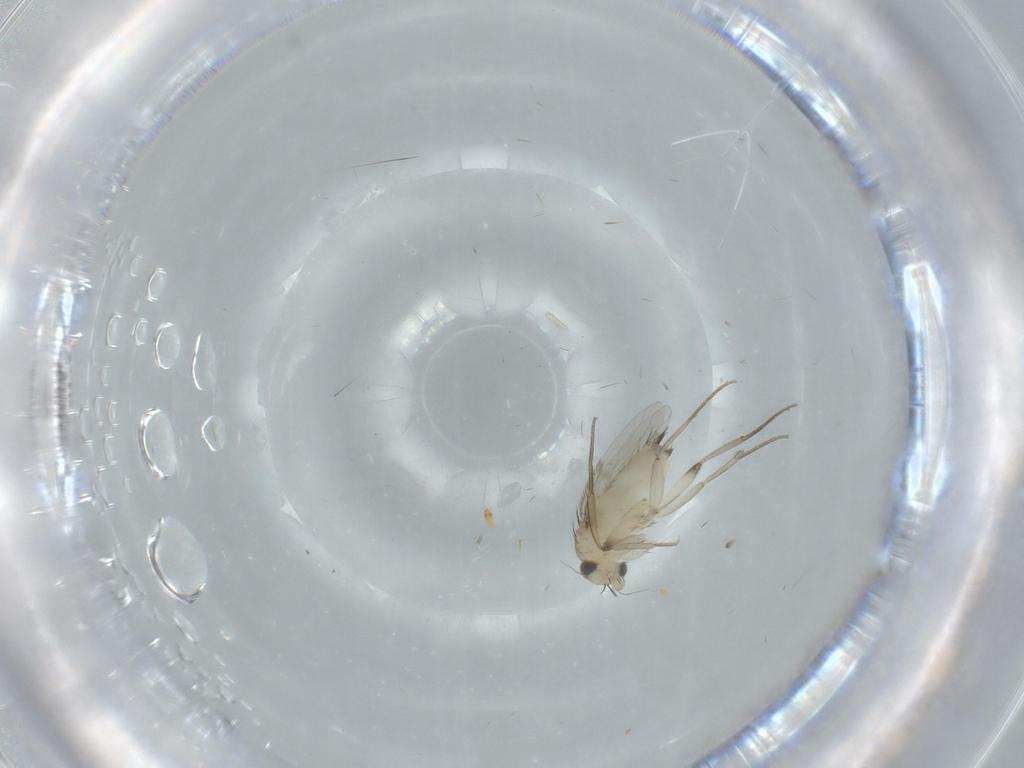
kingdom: Animalia
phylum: Arthropoda
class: Insecta
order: Diptera
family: Phoridae
